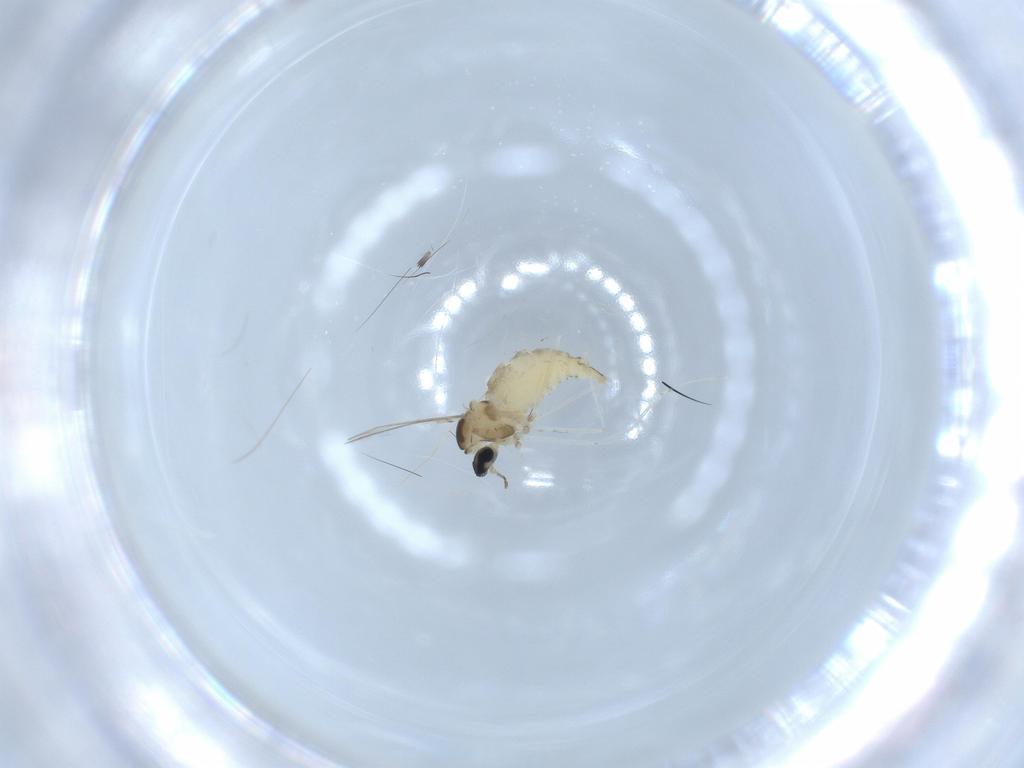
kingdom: Animalia
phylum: Arthropoda
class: Insecta
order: Diptera
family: Cecidomyiidae
